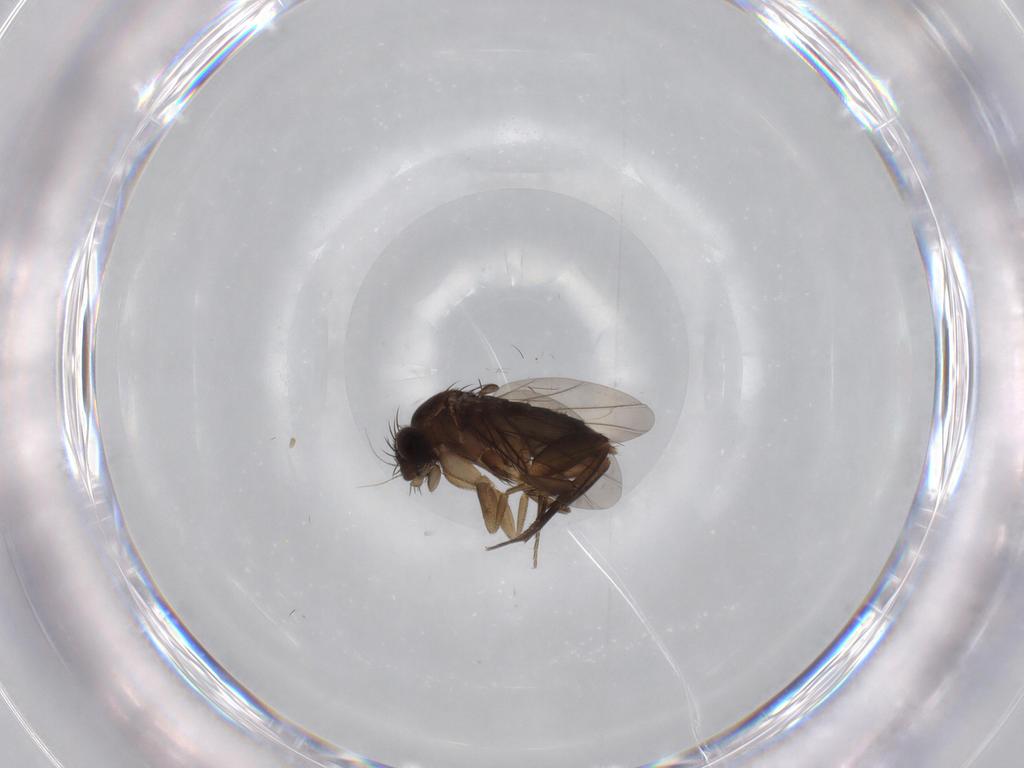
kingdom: Animalia
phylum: Arthropoda
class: Insecta
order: Diptera
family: Phoridae
